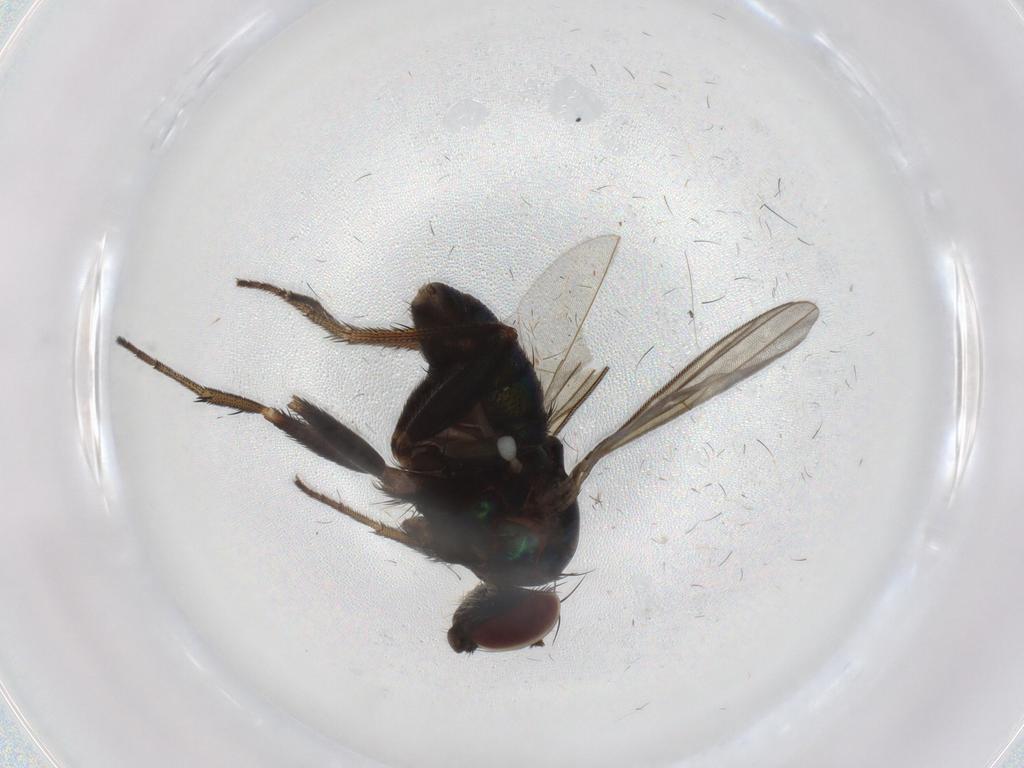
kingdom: Animalia
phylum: Arthropoda
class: Insecta
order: Diptera
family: Dolichopodidae
